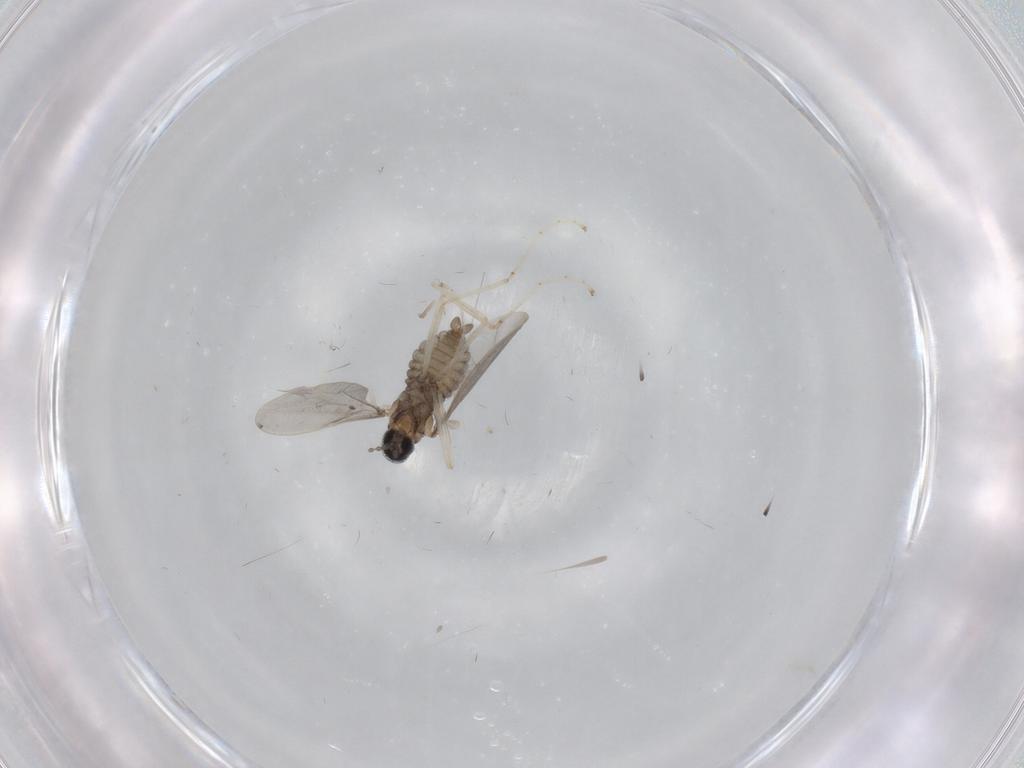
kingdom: Animalia
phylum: Arthropoda
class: Insecta
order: Diptera
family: Cecidomyiidae
